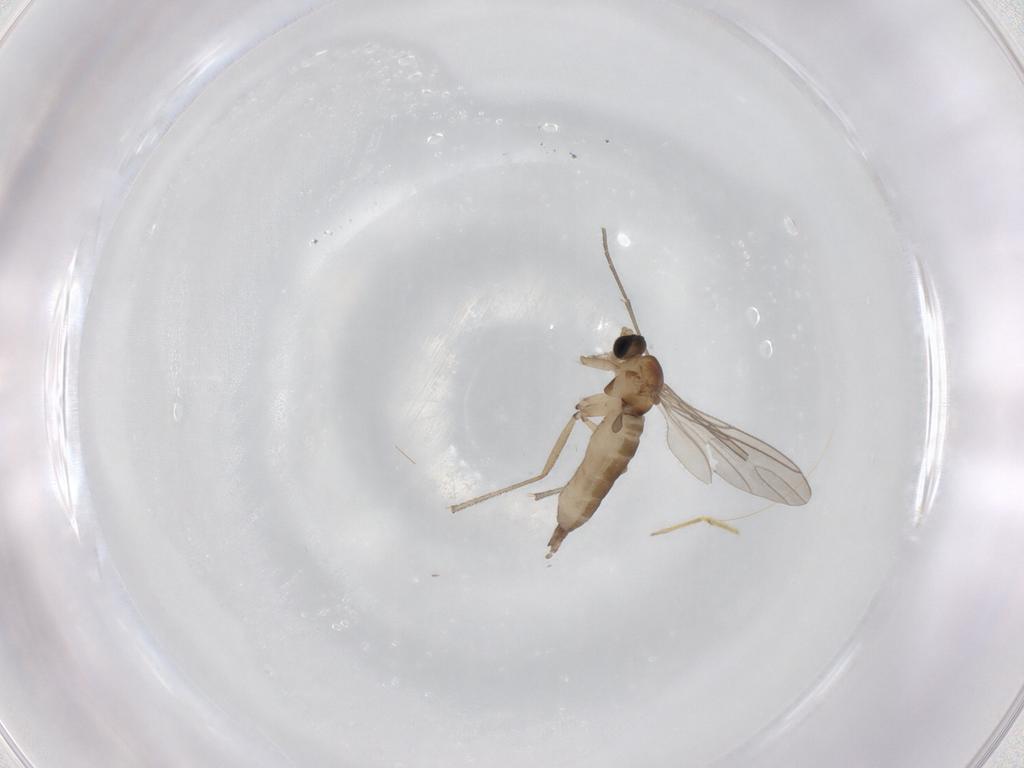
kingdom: Animalia
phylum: Arthropoda
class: Insecta
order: Diptera
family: Sciaridae
